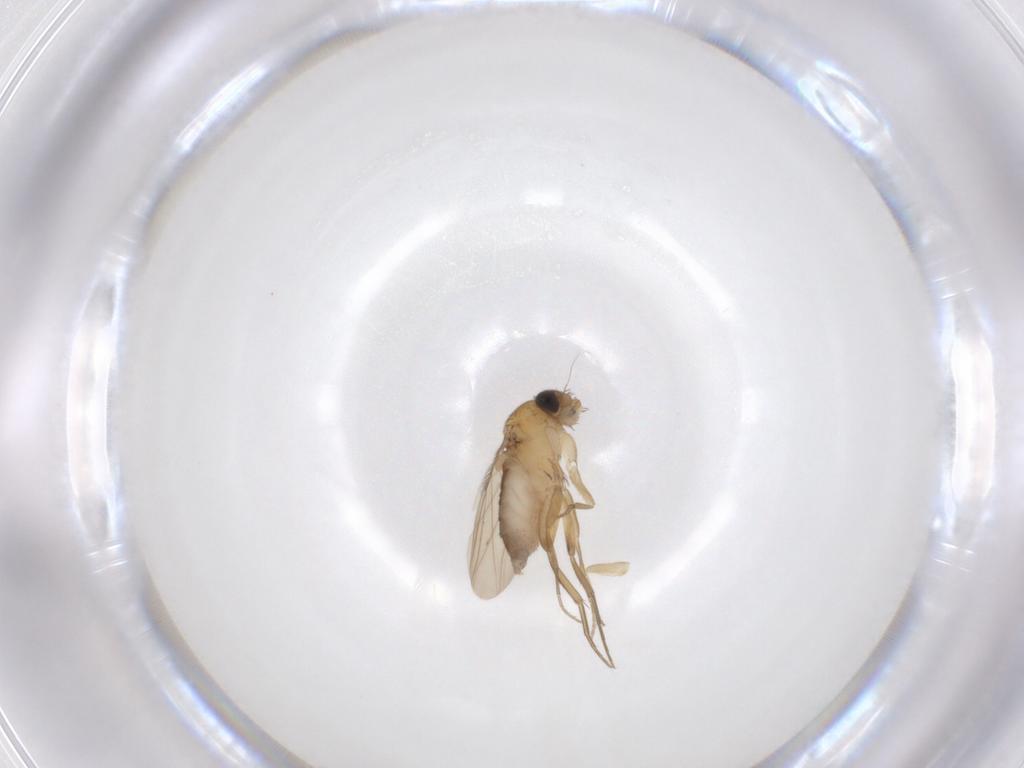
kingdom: Animalia
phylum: Arthropoda
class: Insecta
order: Diptera
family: Phoridae
